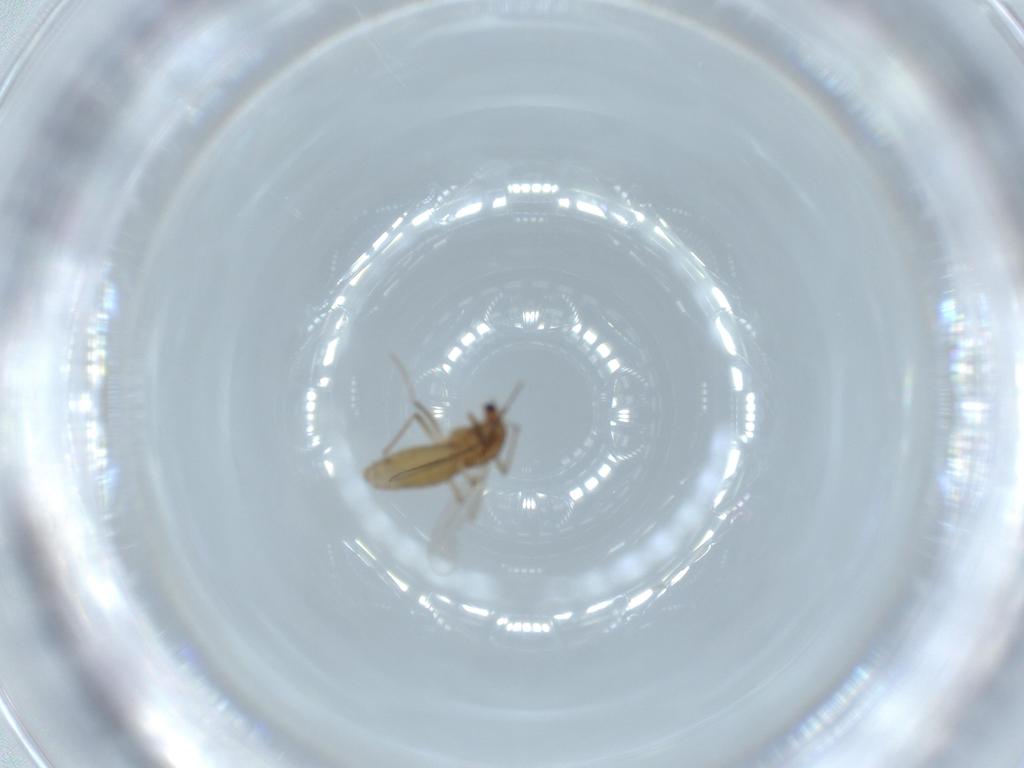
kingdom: Animalia
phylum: Arthropoda
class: Insecta
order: Diptera
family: Chironomidae
